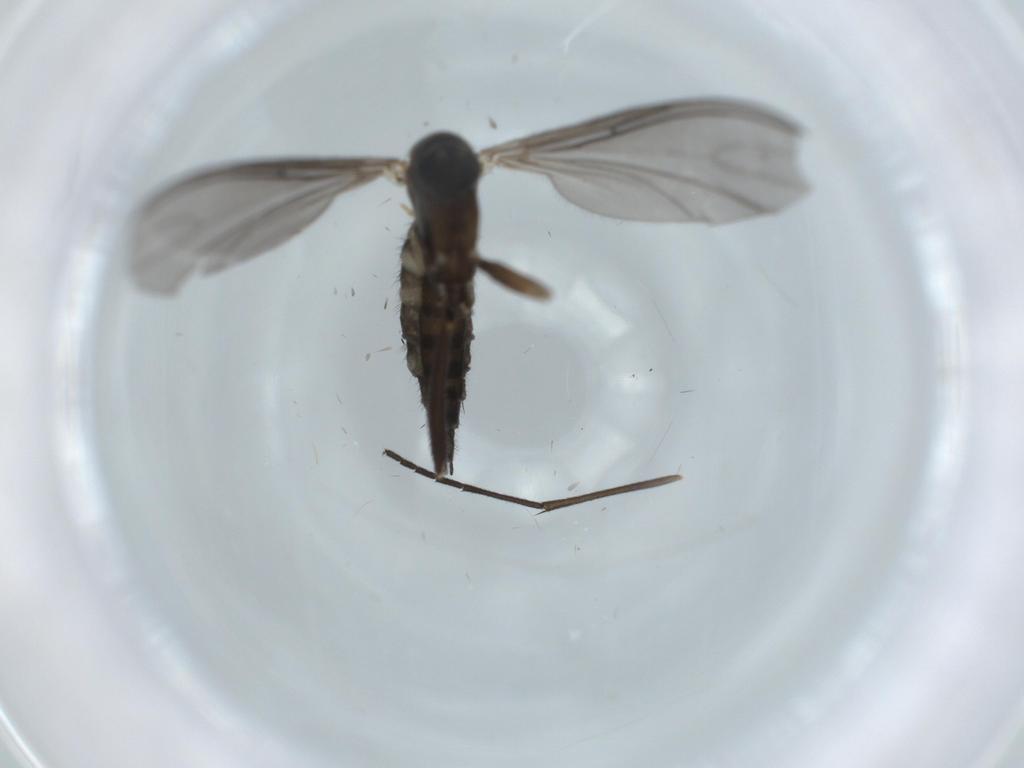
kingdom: Animalia
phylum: Arthropoda
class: Insecta
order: Diptera
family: Sciaridae
